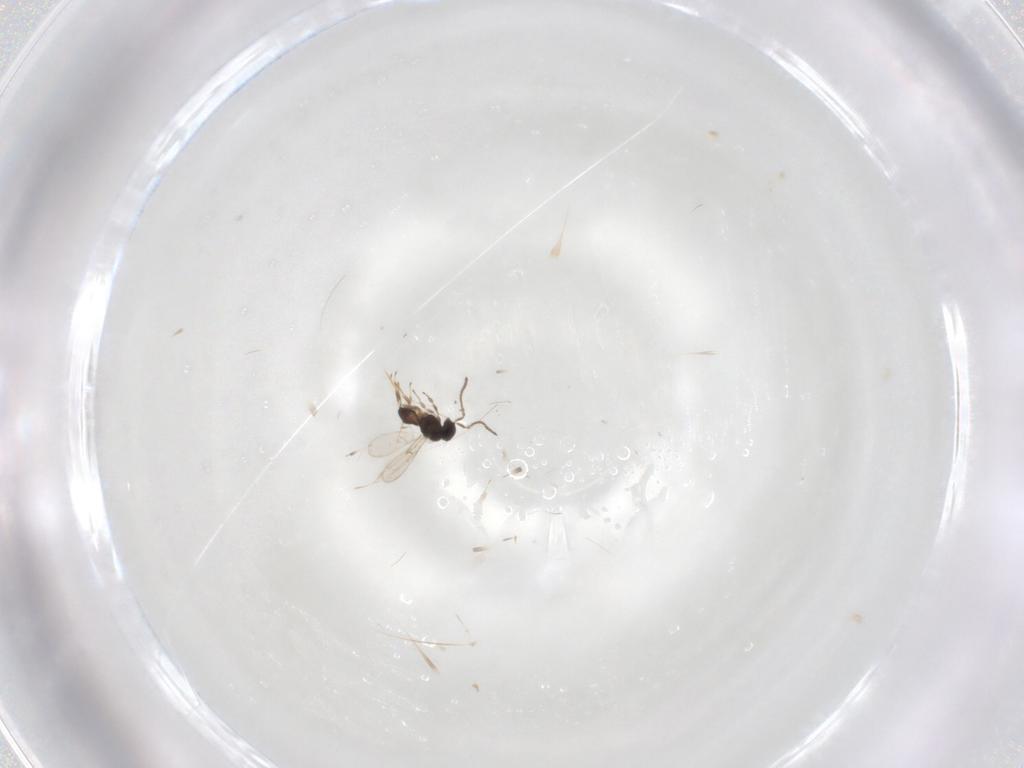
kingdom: Animalia
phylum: Arthropoda
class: Insecta
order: Hymenoptera
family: Scelionidae
